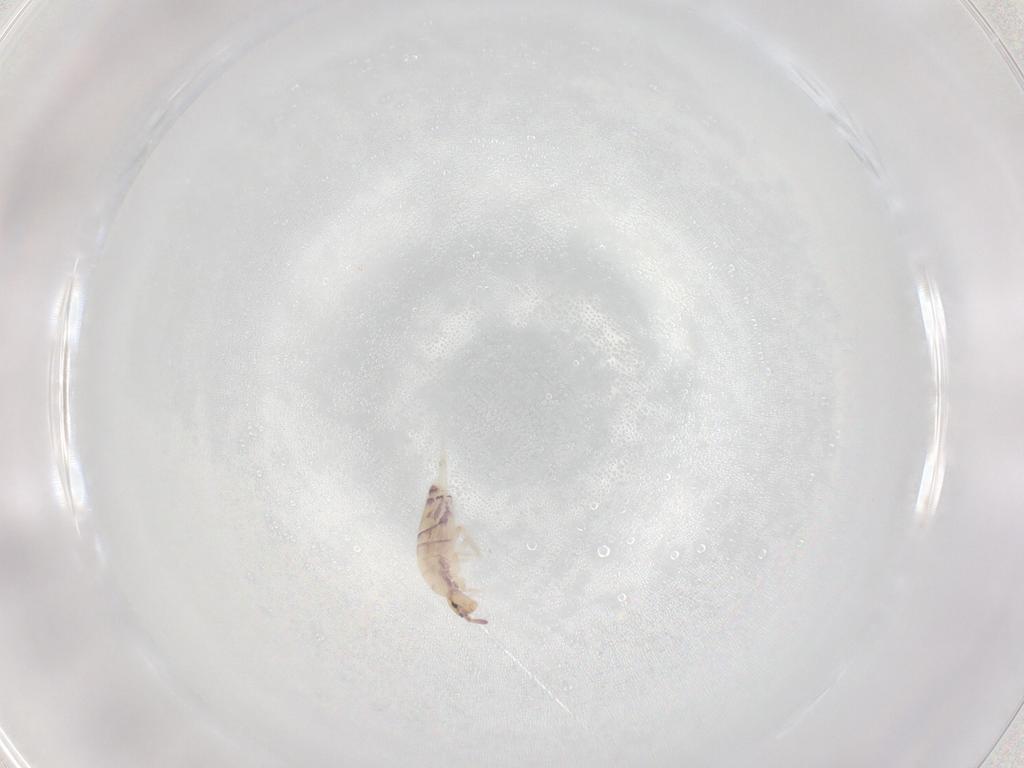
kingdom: Animalia
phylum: Arthropoda
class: Collembola
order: Entomobryomorpha
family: Entomobryidae
